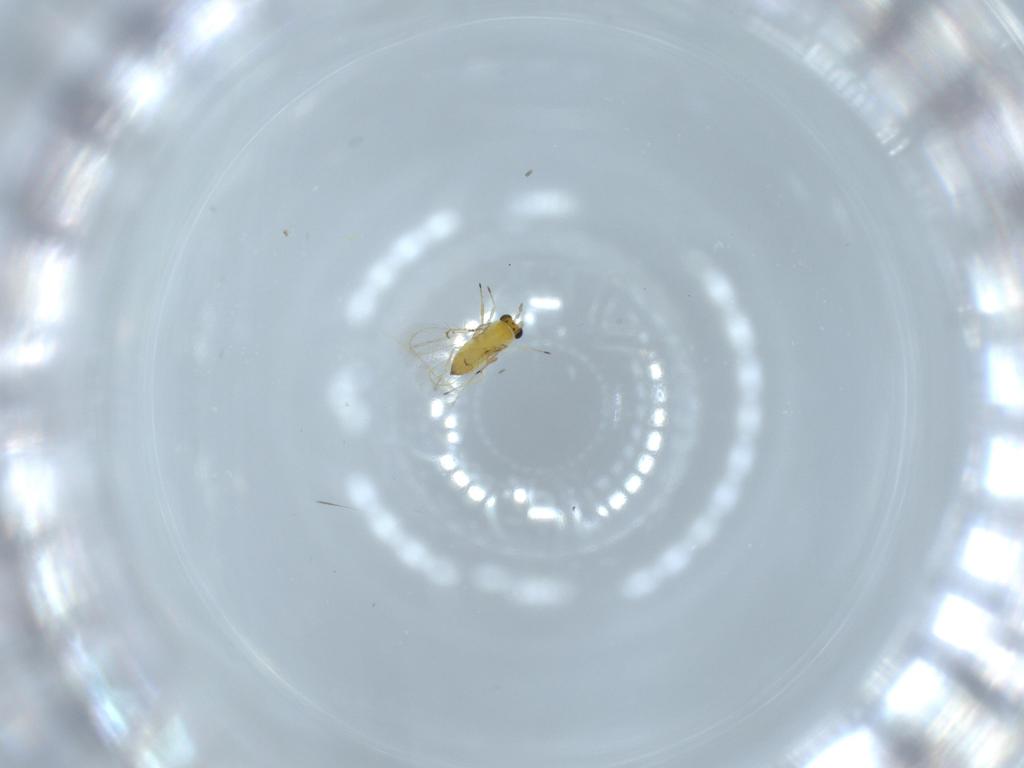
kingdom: Animalia
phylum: Arthropoda
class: Insecta
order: Hymenoptera
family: Trichogrammatidae
